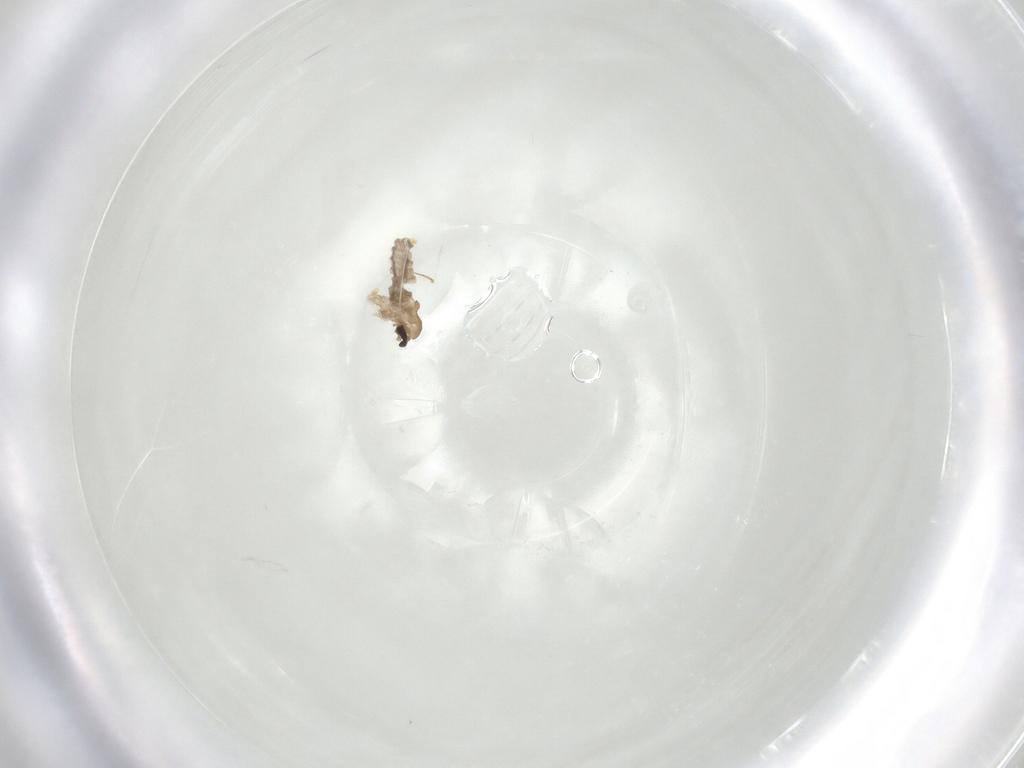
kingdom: Animalia
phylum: Arthropoda
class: Insecta
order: Diptera
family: Cecidomyiidae
